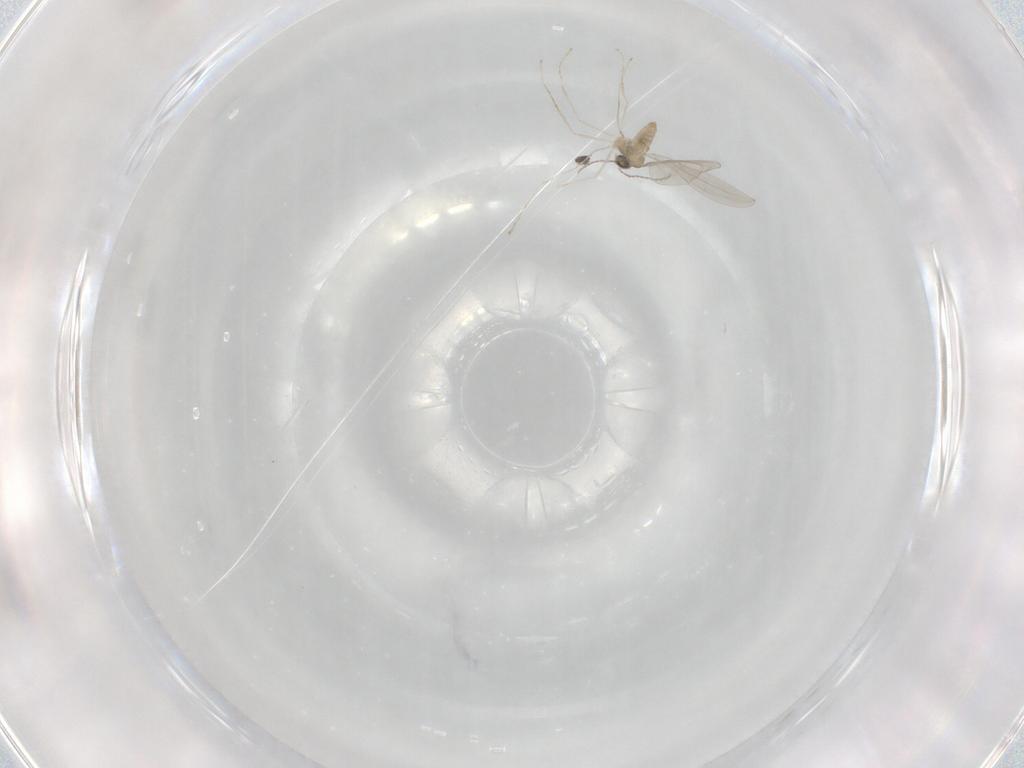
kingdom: Animalia
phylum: Arthropoda
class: Insecta
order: Diptera
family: Cecidomyiidae
